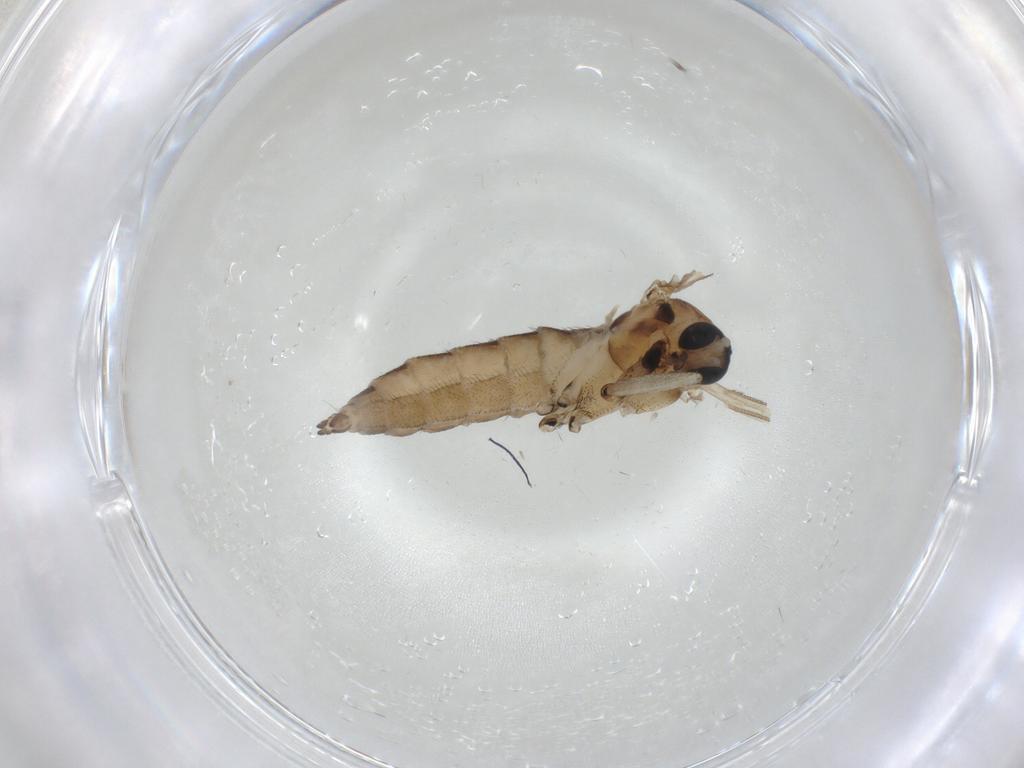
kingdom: Animalia
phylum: Arthropoda
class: Insecta
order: Diptera
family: Sciaridae
